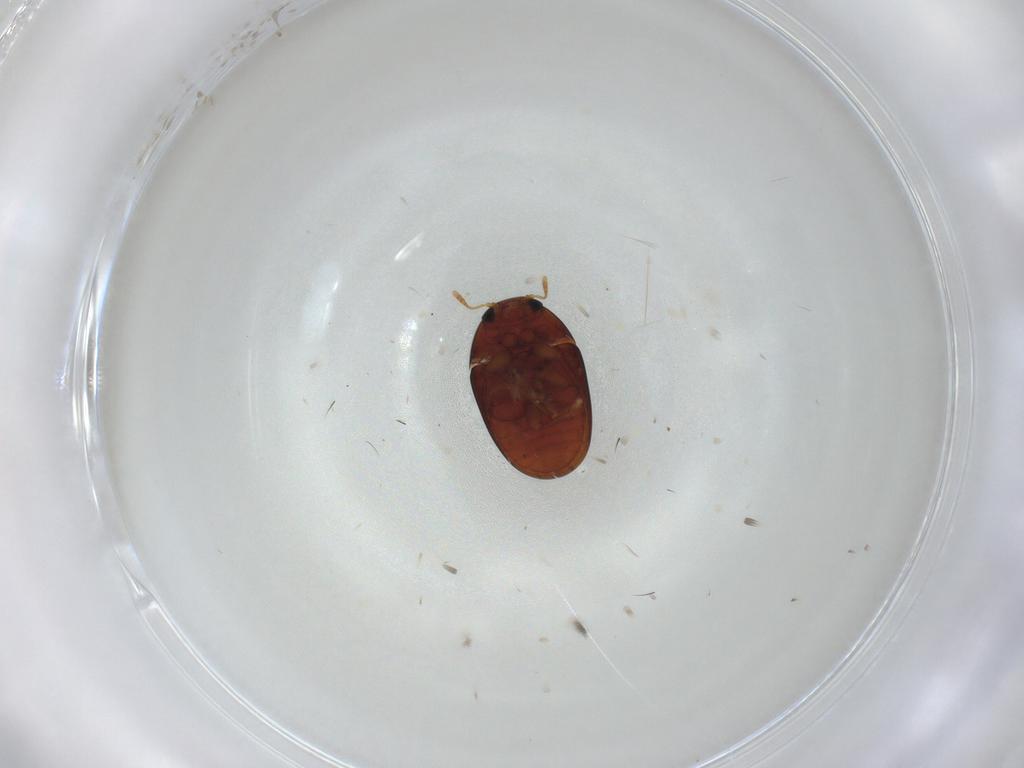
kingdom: Animalia
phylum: Arthropoda
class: Insecta
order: Coleoptera
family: Phalacridae
